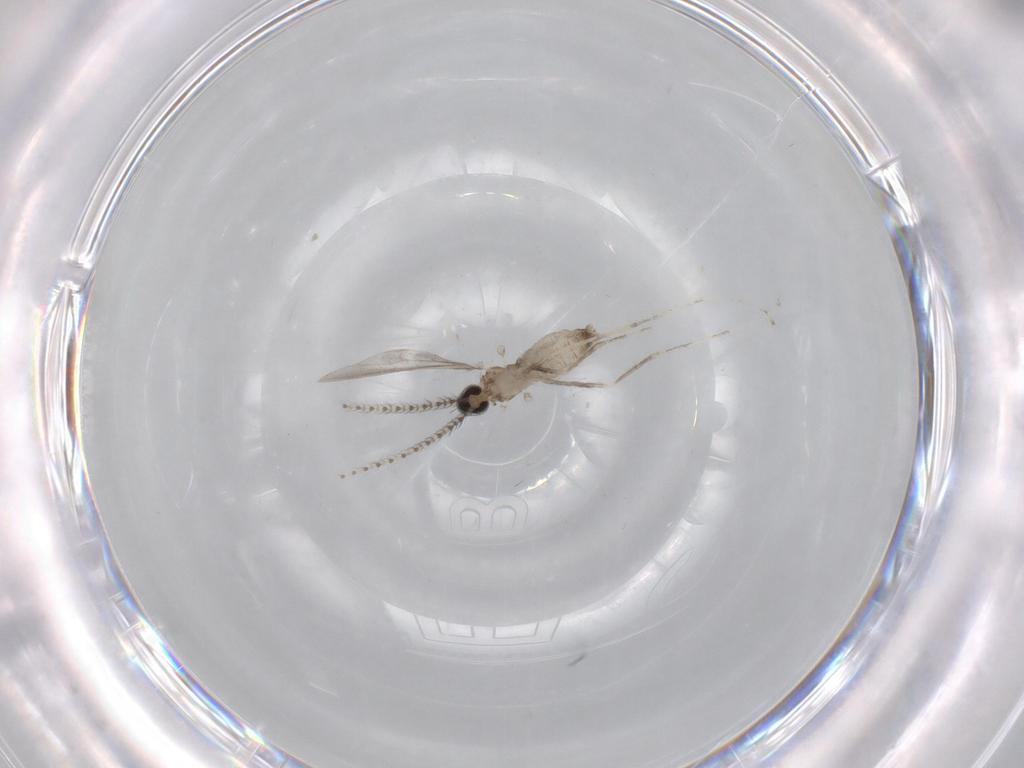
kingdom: Animalia
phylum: Arthropoda
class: Insecta
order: Diptera
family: Cecidomyiidae
